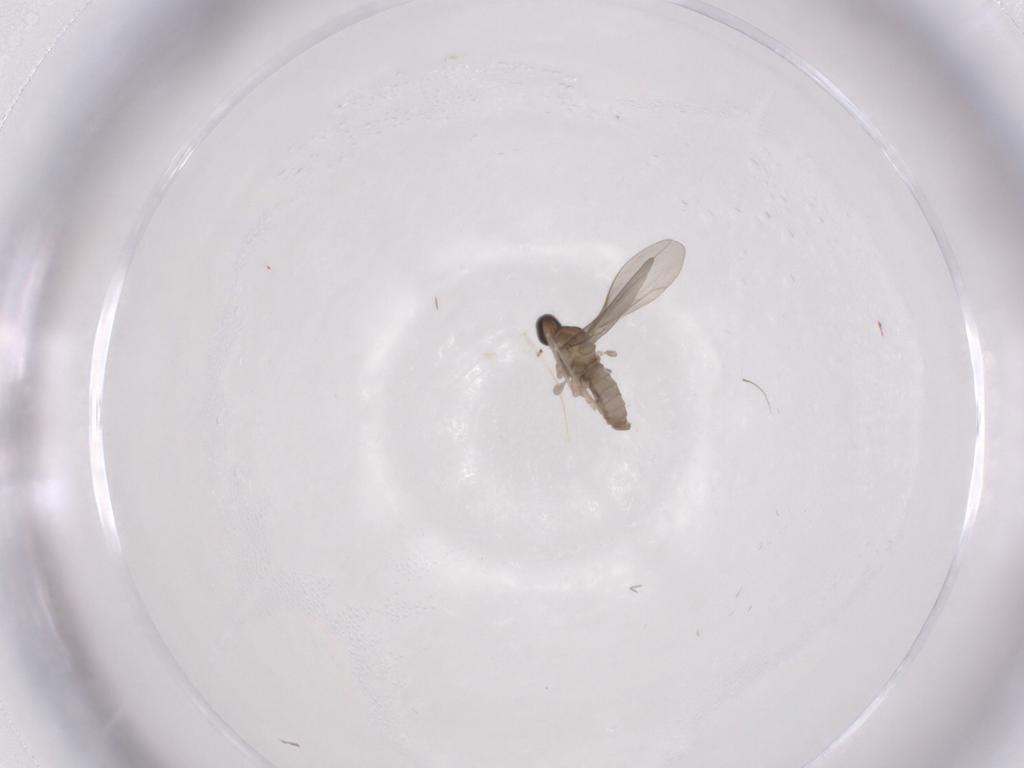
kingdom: Animalia
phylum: Arthropoda
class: Insecta
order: Diptera
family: Cecidomyiidae
